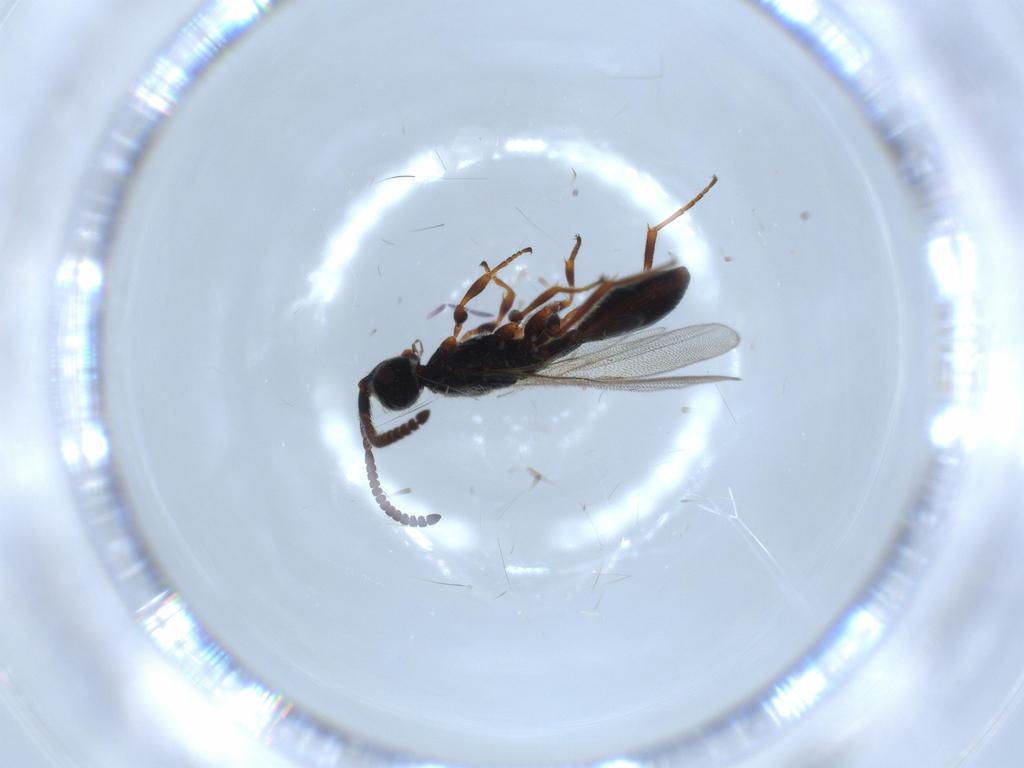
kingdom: Animalia
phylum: Arthropoda
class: Insecta
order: Hymenoptera
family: Diapriidae
